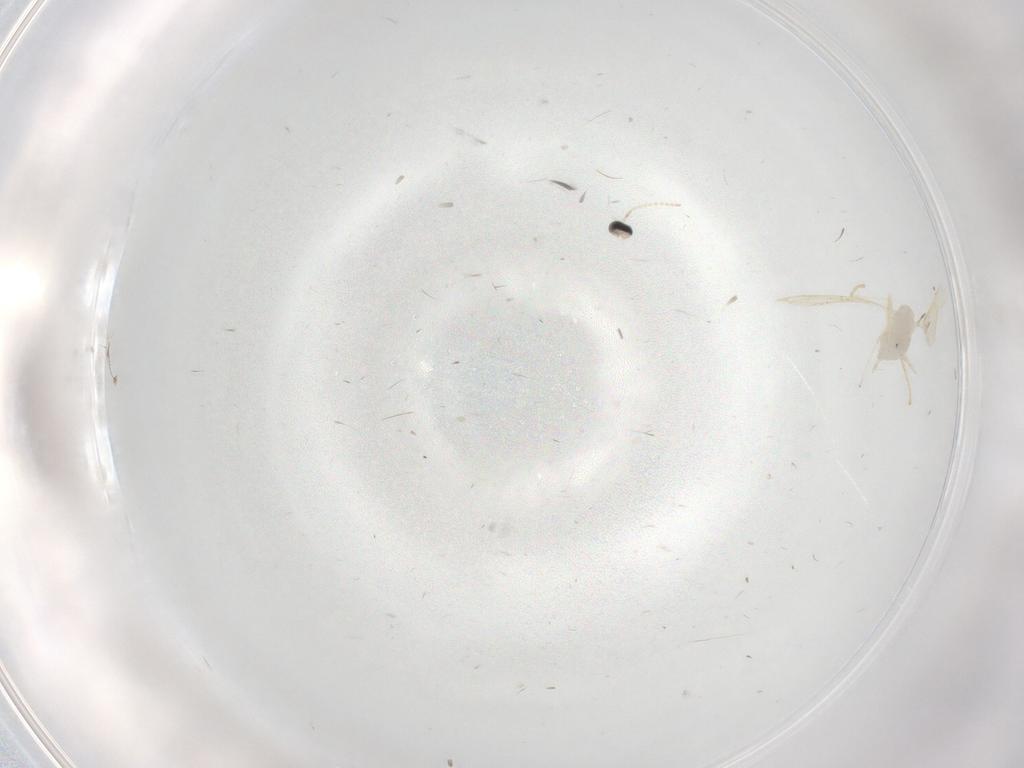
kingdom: Animalia
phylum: Arthropoda
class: Insecta
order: Diptera
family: Cecidomyiidae
